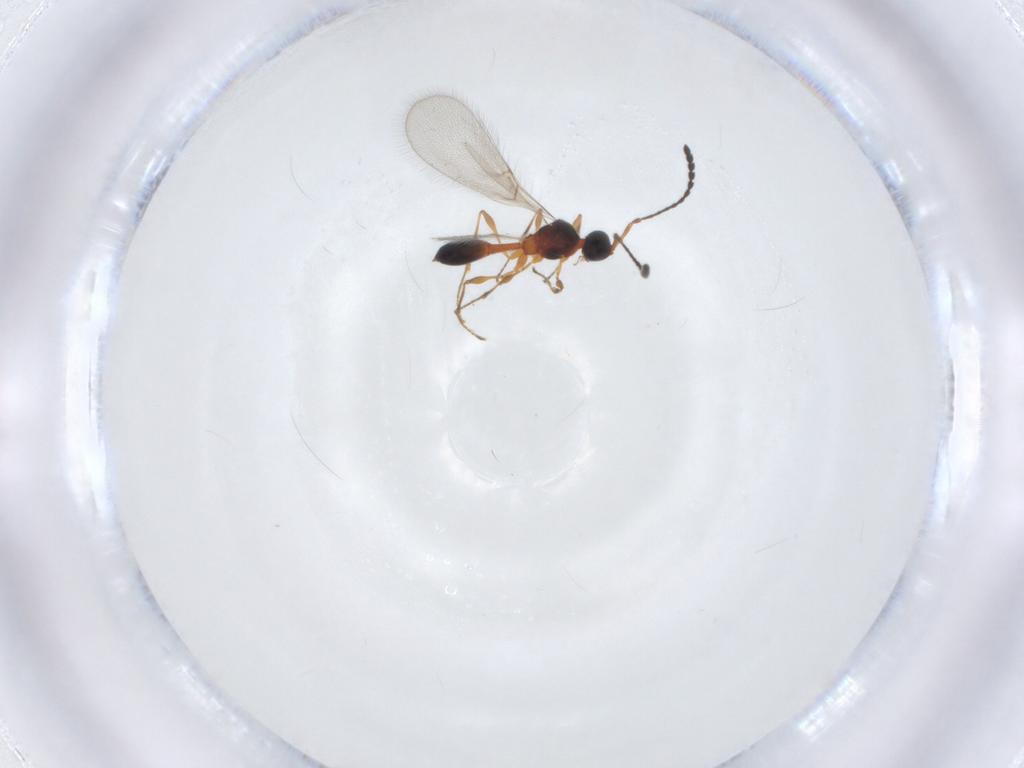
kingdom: Animalia
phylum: Arthropoda
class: Insecta
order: Hymenoptera
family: Diapriidae
